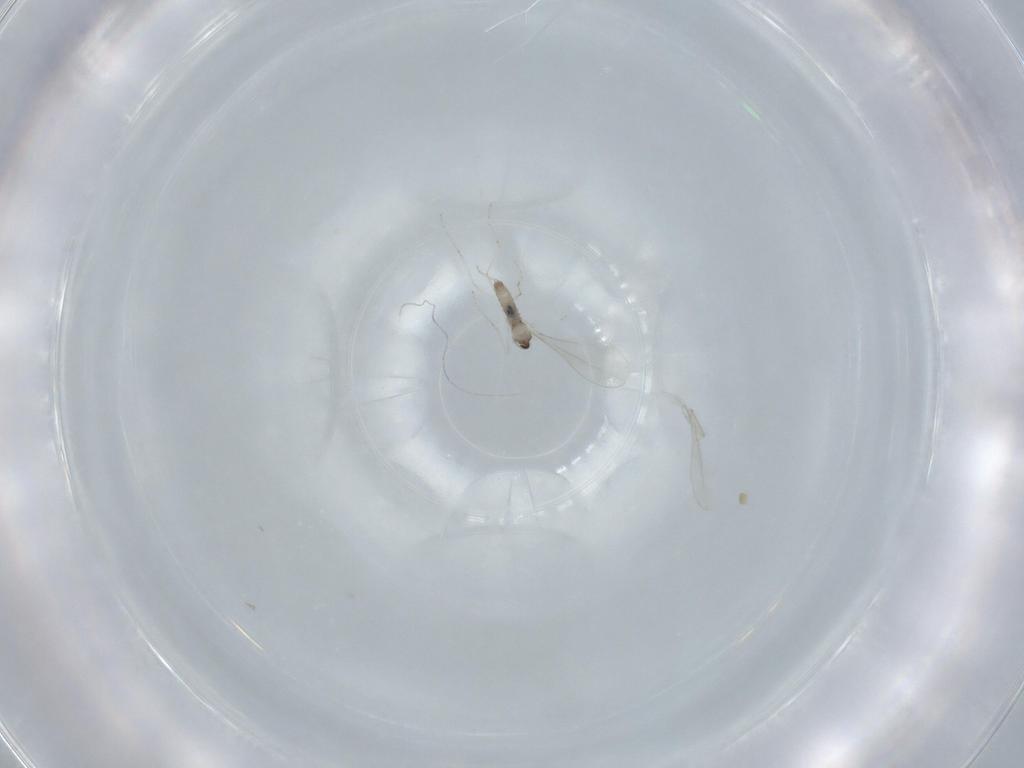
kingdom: Animalia
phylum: Arthropoda
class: Insecta
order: Diptera
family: Cecidomyiidae
